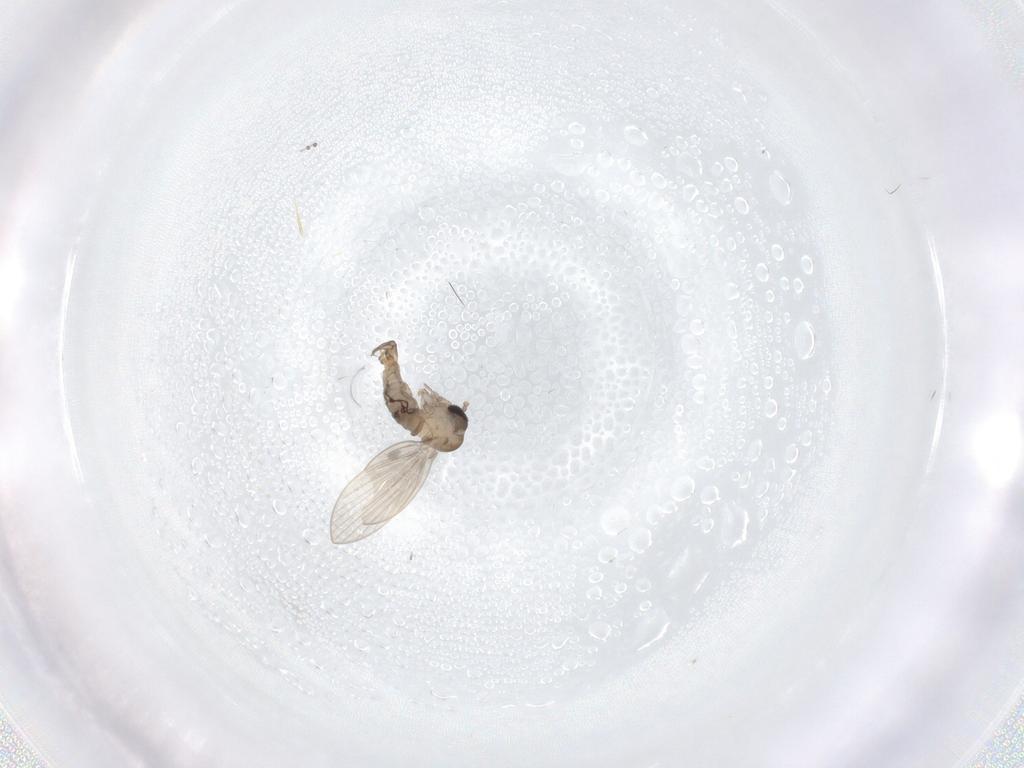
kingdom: Animalia
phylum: Arthropoda
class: Insecta
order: Diptera
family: Psychodidae
